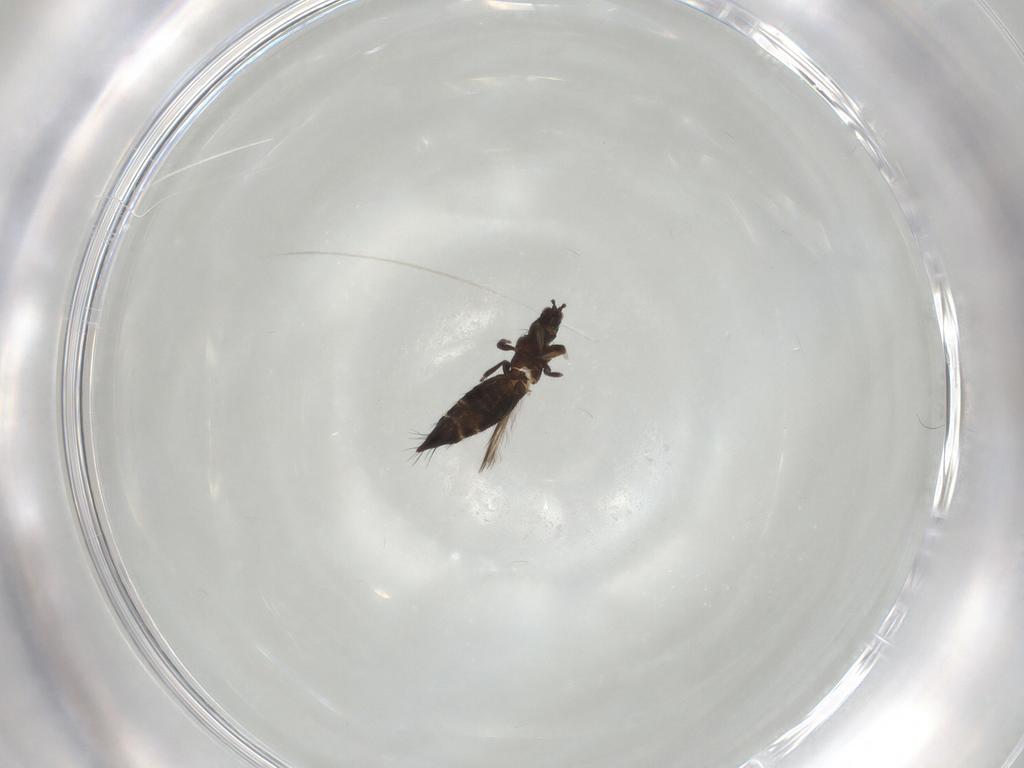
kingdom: Animalia
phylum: Arthropoda
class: Insecta
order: Thysanoptera
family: Thripidae
